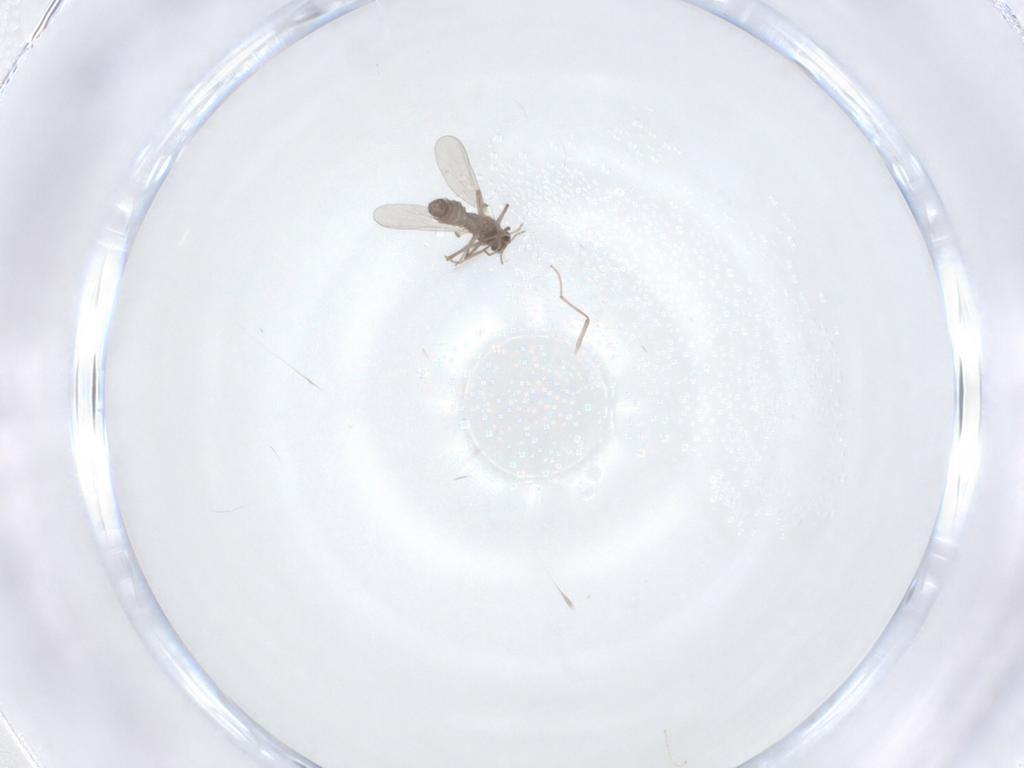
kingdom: Animalia
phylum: Arthropoda
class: Insecta
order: Diptera
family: Chironomidae
